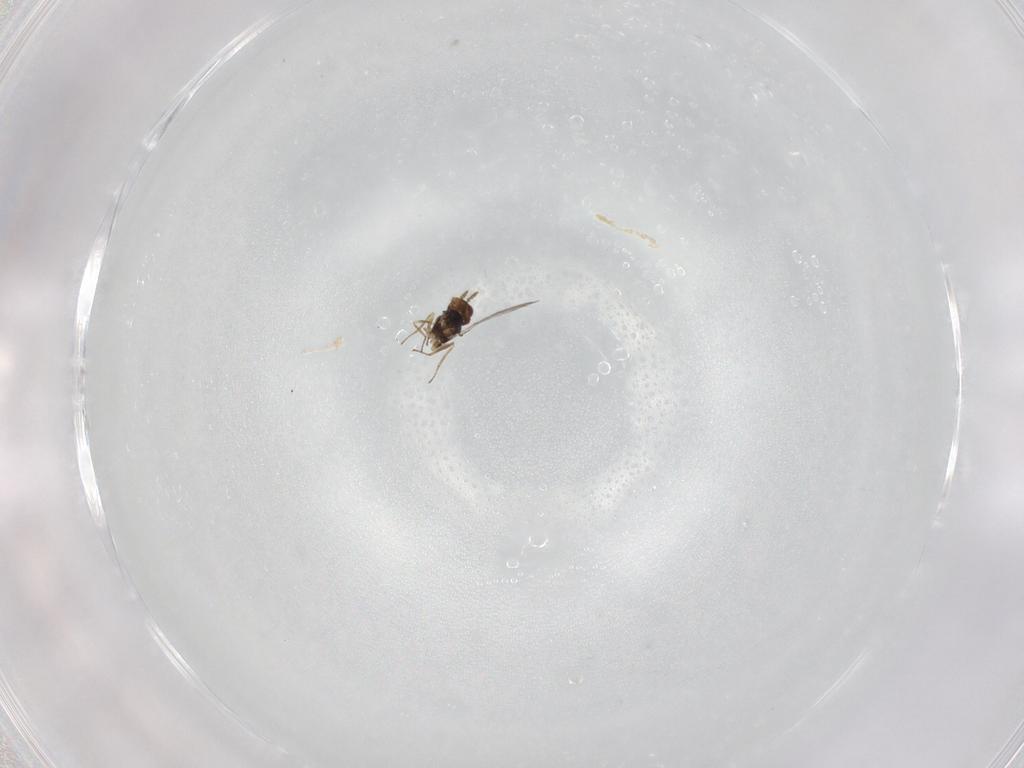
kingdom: Animalia
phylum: Arthropoda
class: Insecta
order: Hymenoptera
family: Eulophidae
